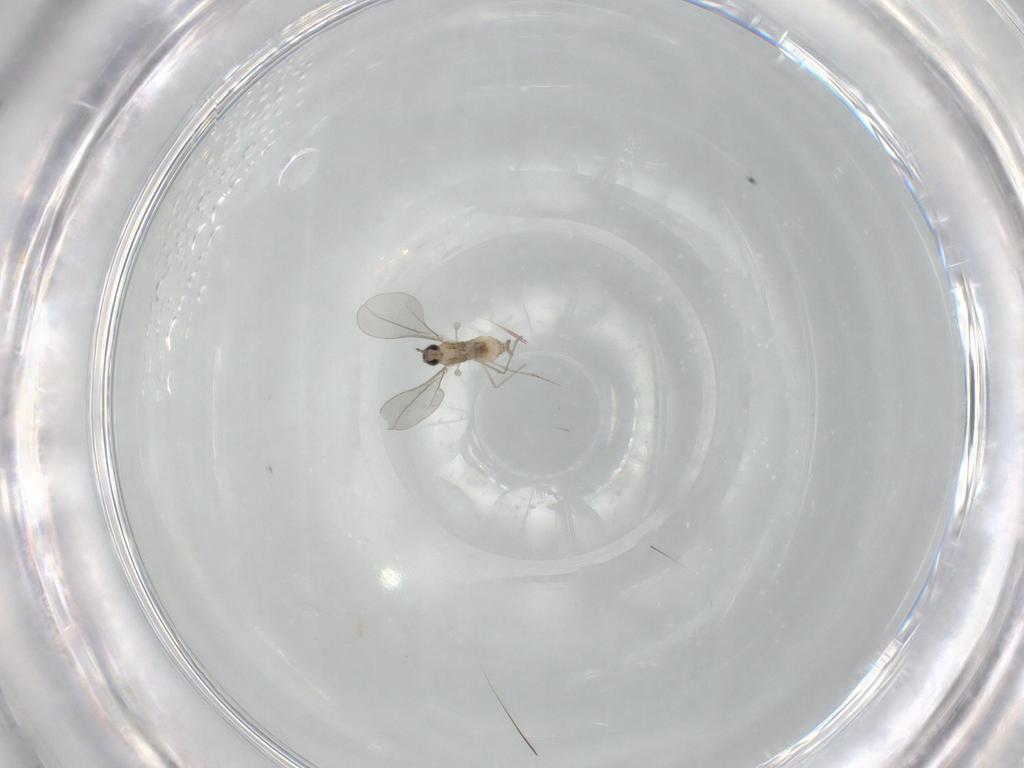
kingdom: Animalia
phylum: Arthropoda
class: Insecta
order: Diptera
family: Cecidomyiidae
